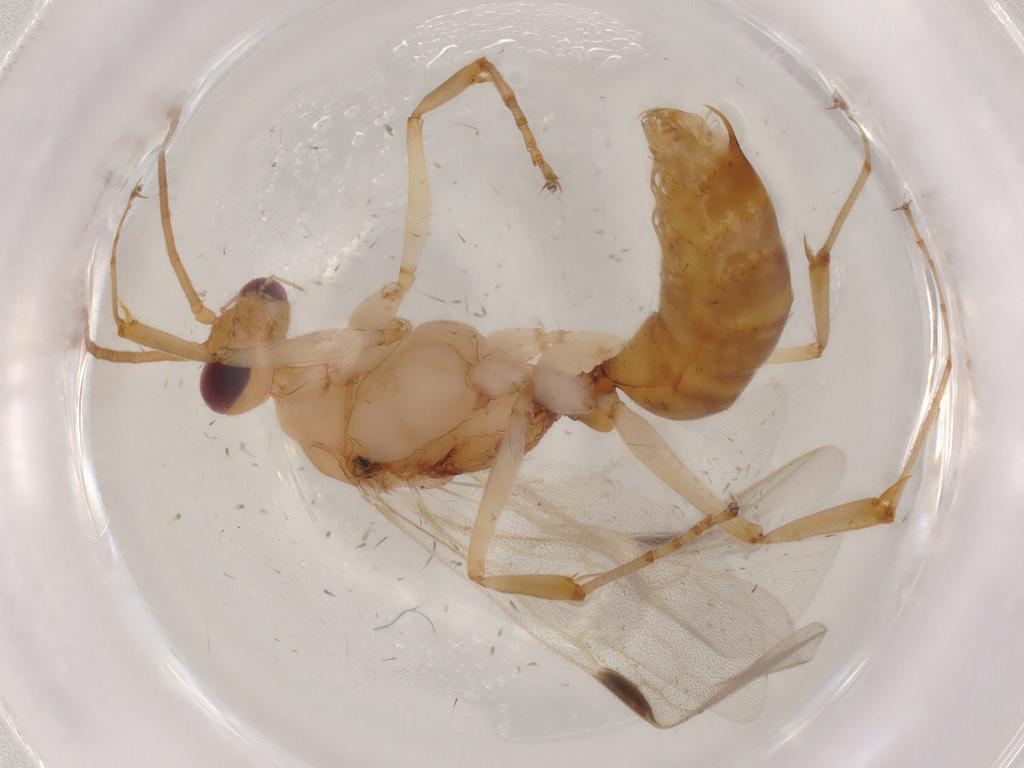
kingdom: Animalia
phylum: Arthropoda
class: Insecta
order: Hymenoptera
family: Formicidae
